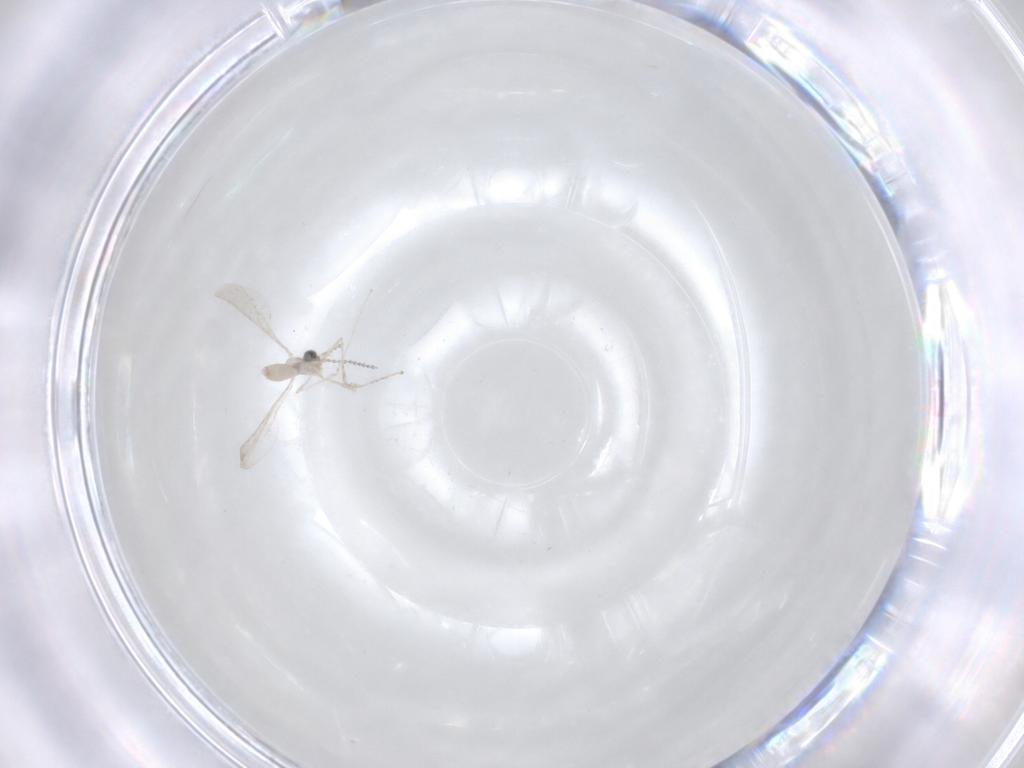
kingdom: Animalia
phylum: Arthropoda
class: Insecta
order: Diptera
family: Cecidomyiidae
